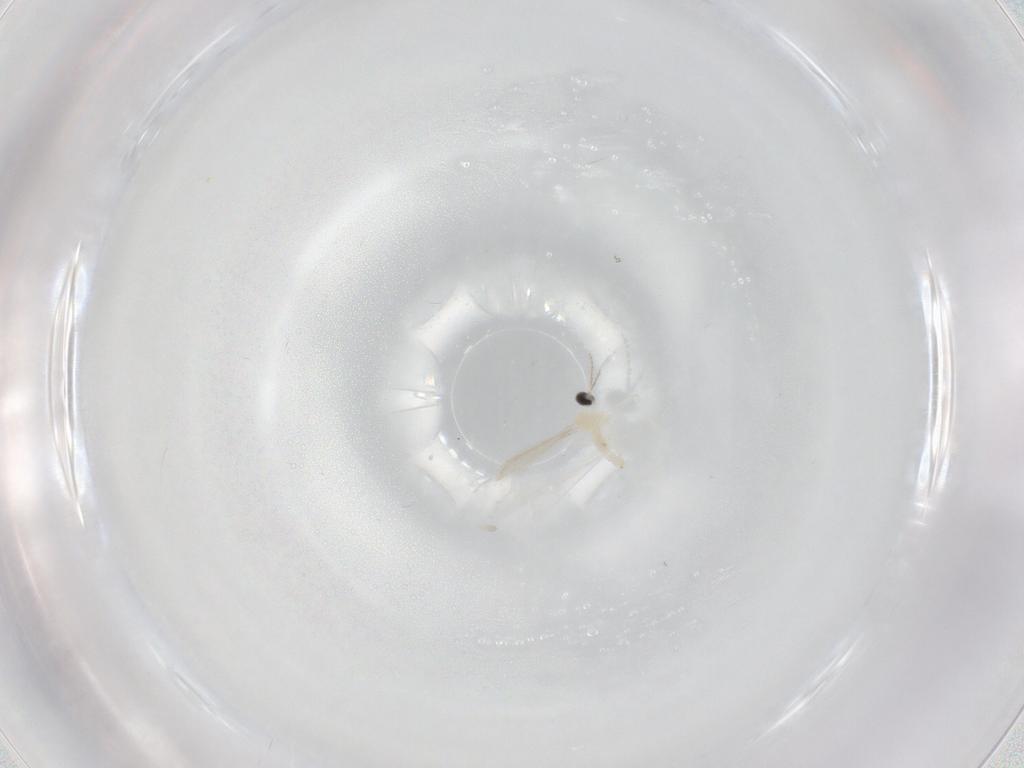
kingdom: Animalia
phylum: Arthropoda
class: Insecta
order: Diptera
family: Cecidomyiidae
